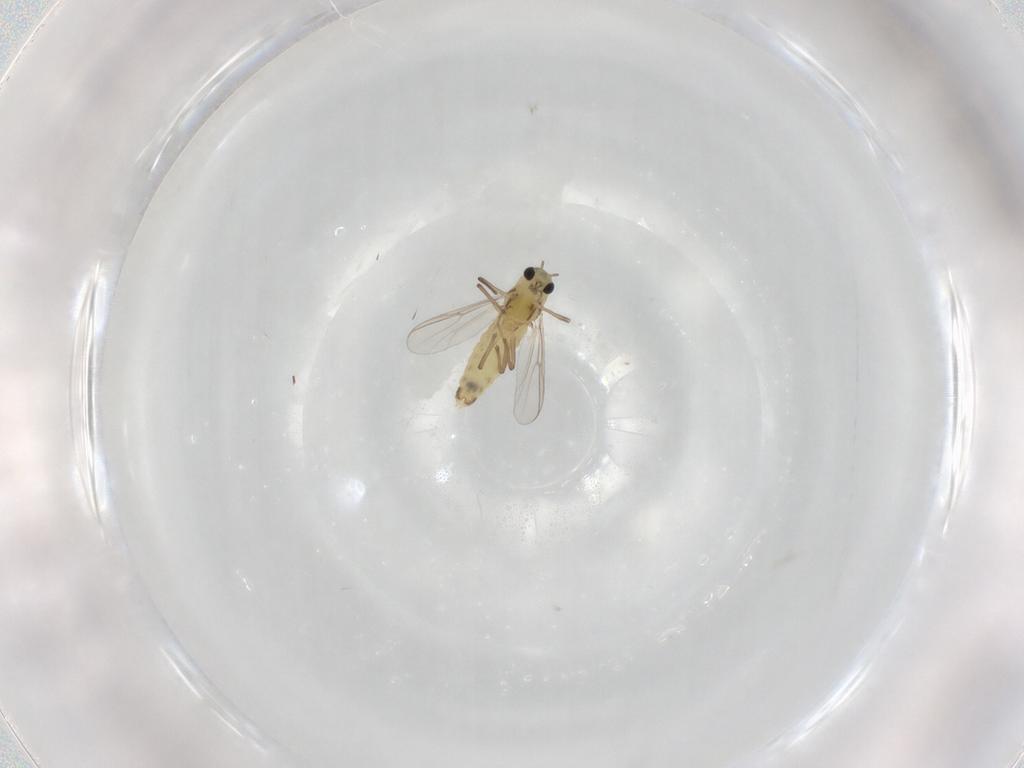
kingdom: Animalia
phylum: Arthropoda
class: Insecta
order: Diptera
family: Chironomidae
